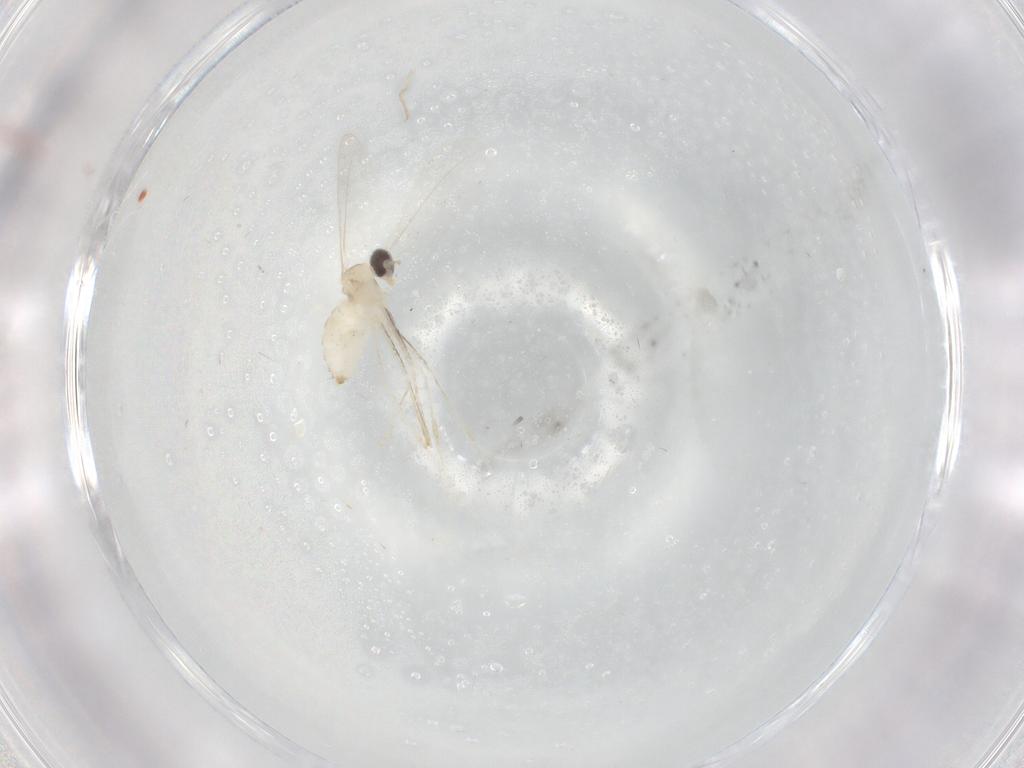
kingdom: Animalia
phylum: Arthropoda
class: Insecta
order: Diptera
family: Cecidomyiidae
